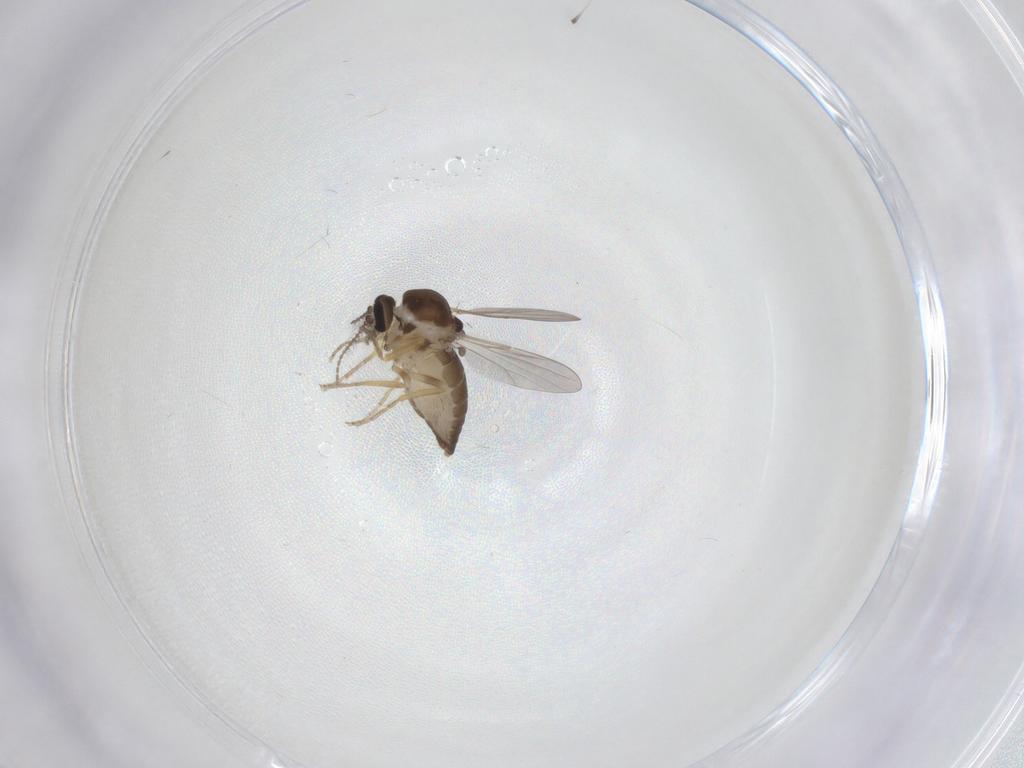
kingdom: Animalia
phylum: Arthropoda
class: Insecta
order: Diptera
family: Ceratopogonidae
